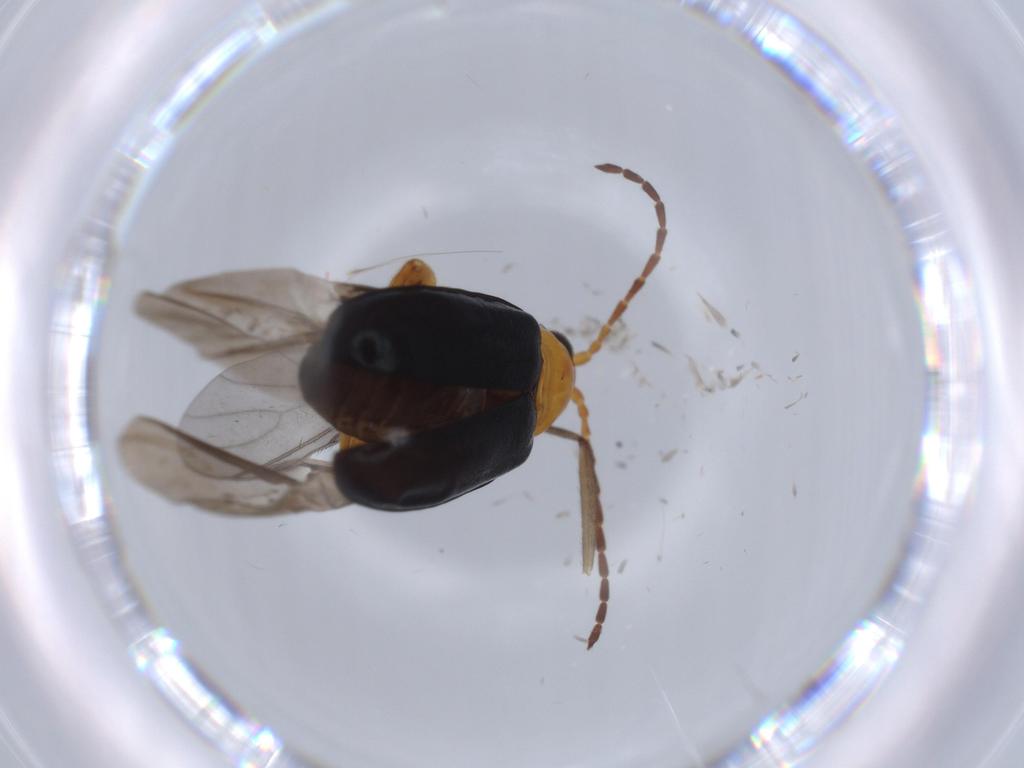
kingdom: Animalia
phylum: Arthropoda
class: Insecta
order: Coleoptera
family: Chrysomelidae
